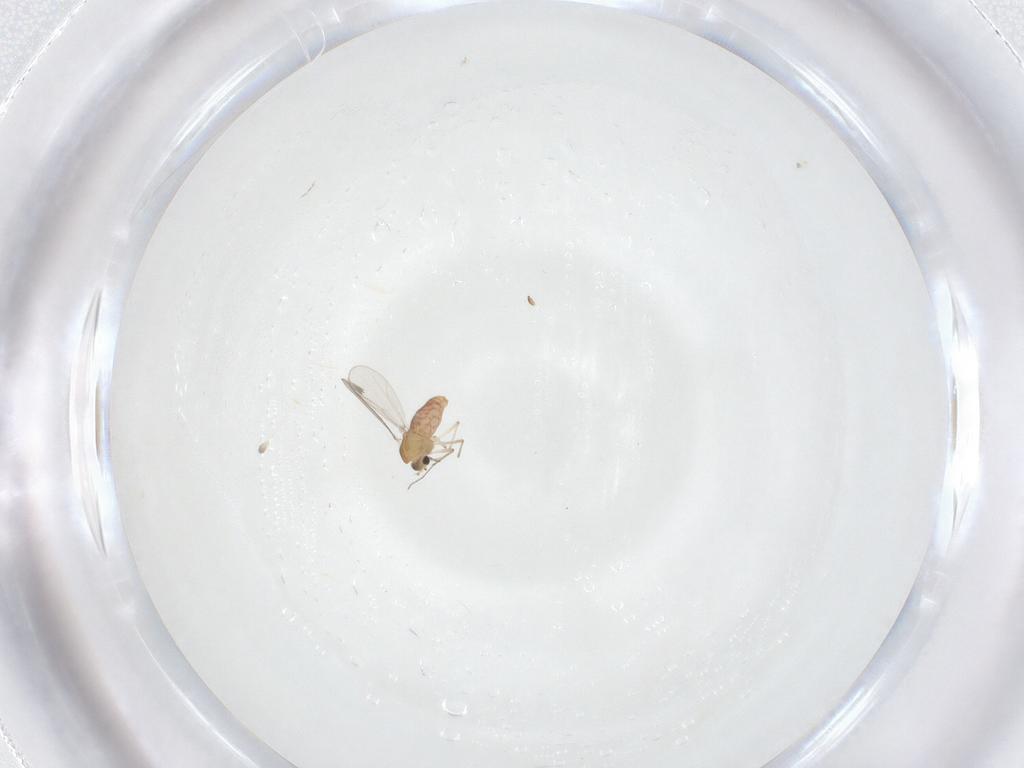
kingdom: Animalia
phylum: Arthropoda
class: Insecta
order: Diptera
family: Chironomidae
